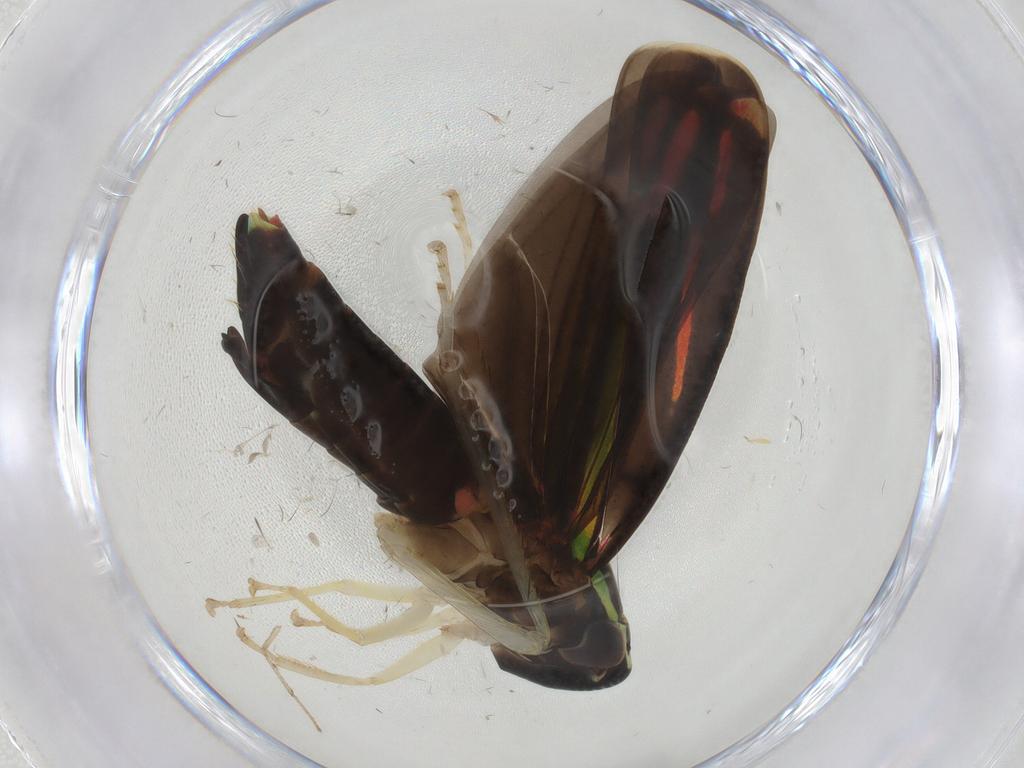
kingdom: Animalia
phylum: Arthropoda
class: Insecta
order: Hemiptera
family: Cicadellidae
